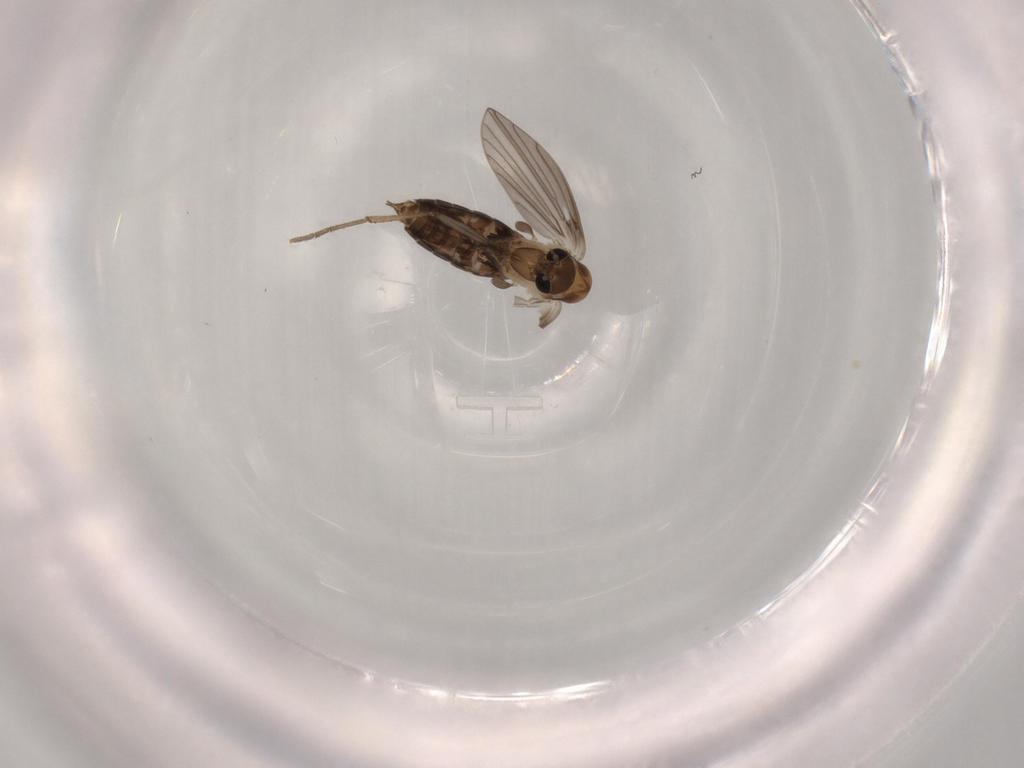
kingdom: Animalia
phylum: Arthropoda
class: Insecta
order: Diptera
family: Psychodidae
